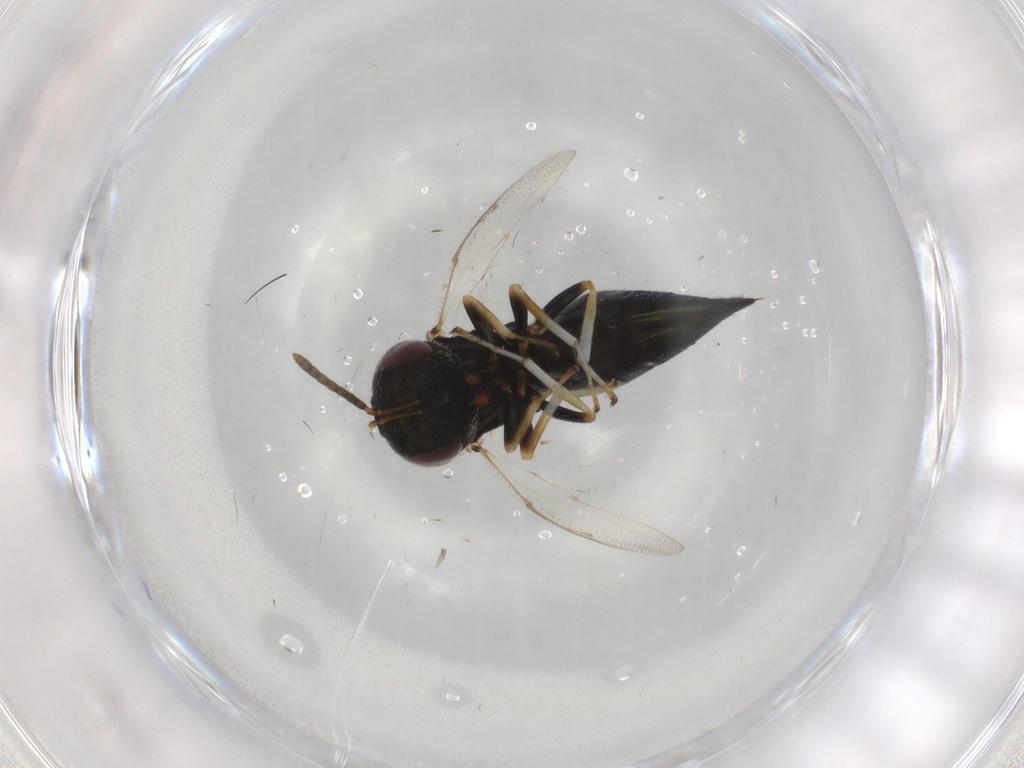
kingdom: Animalia
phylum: Arthropoda
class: Insecta
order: Hymenoptera
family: Pteromalidae
